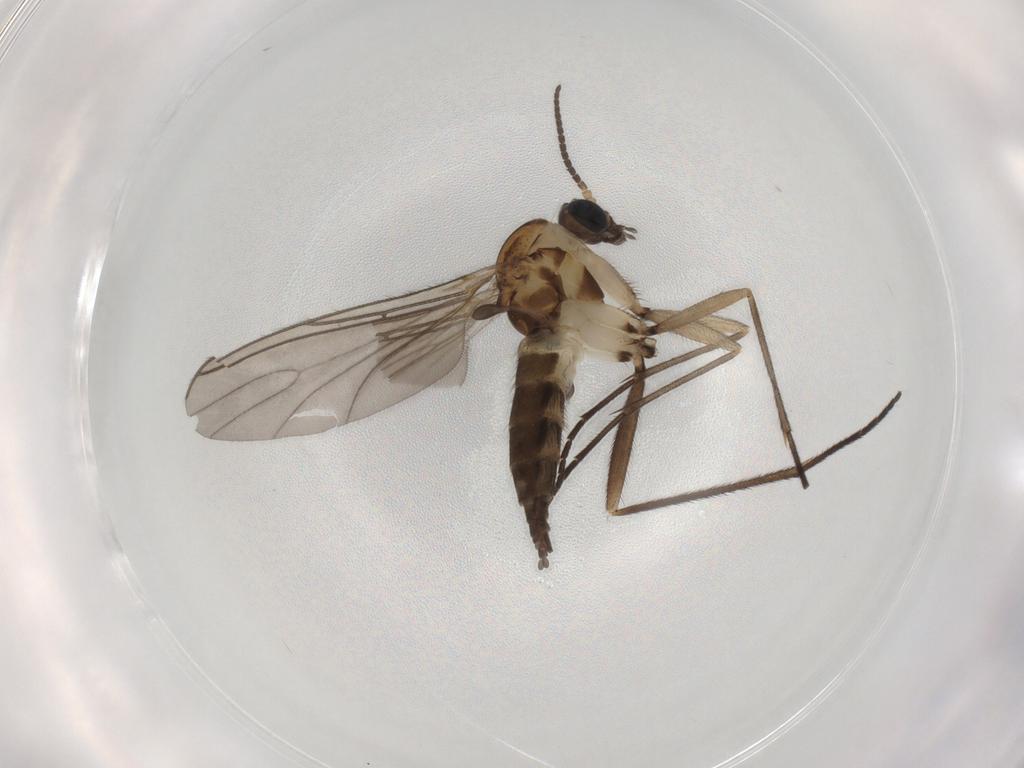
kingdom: Animalia
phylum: Arthropoda
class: Insecta
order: Diptera
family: Sciaridae
